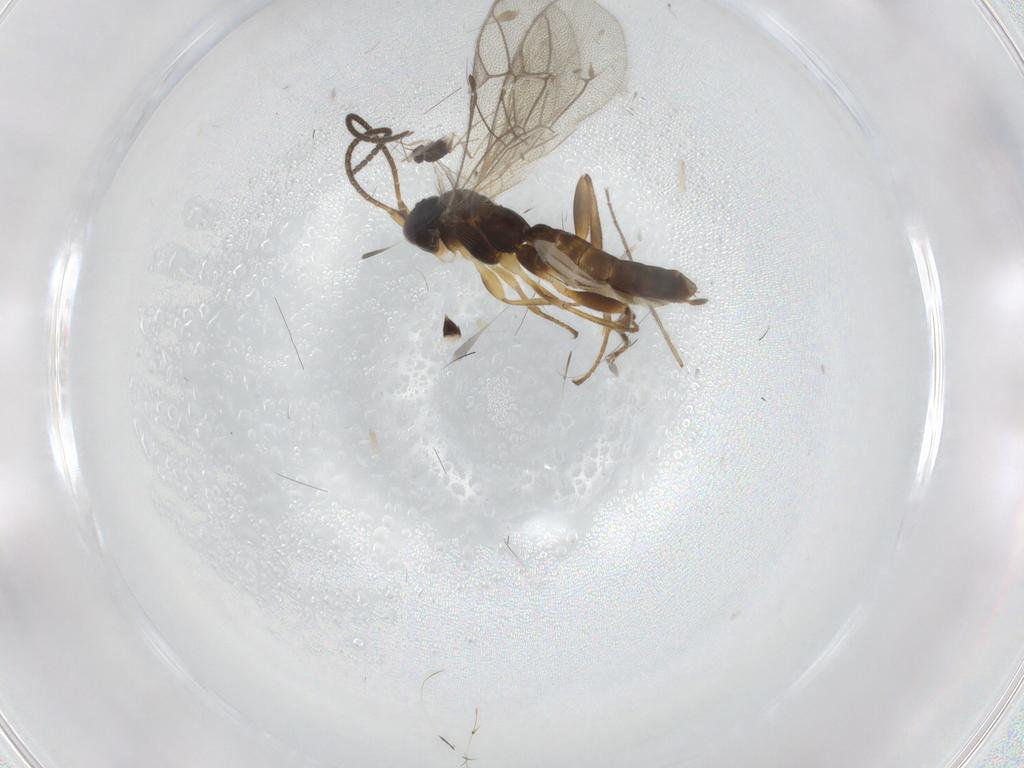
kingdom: Animalia
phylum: Arthropoda
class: Insecta
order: Hymenoptera
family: Mymaridae
